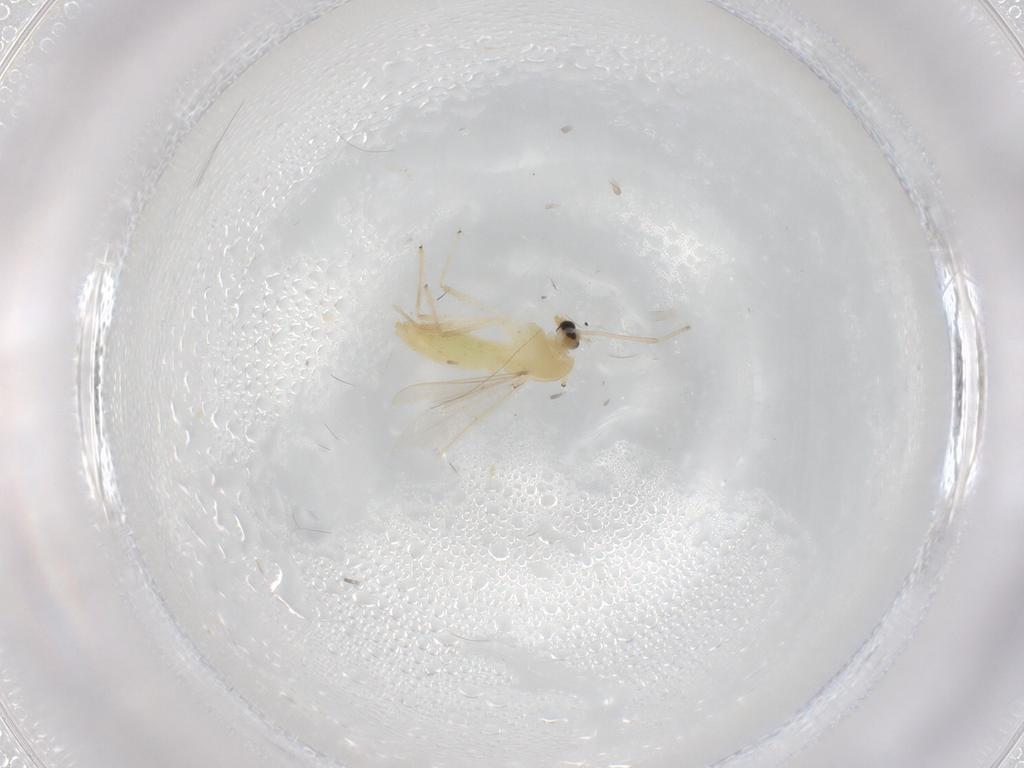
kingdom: Animalia
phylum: Arthropoda
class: Insecta
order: Diptera
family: Chironomidae
